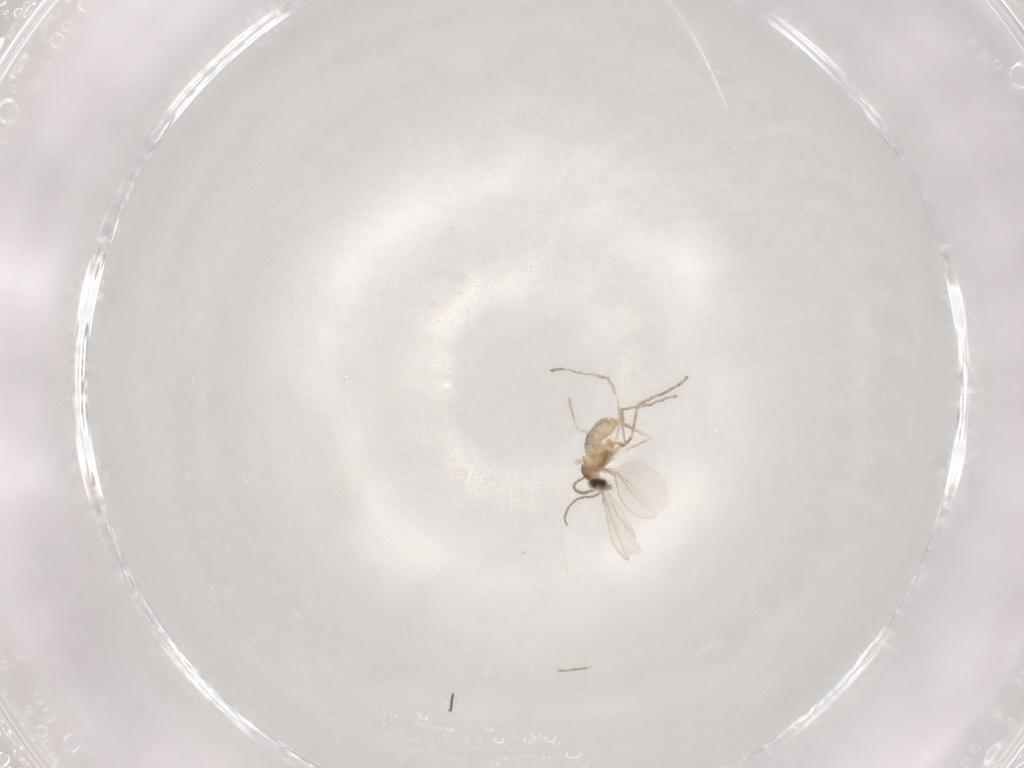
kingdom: Animalia
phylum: Arthropoda
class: Insecta
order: Diptera
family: Cecidomyiidae
